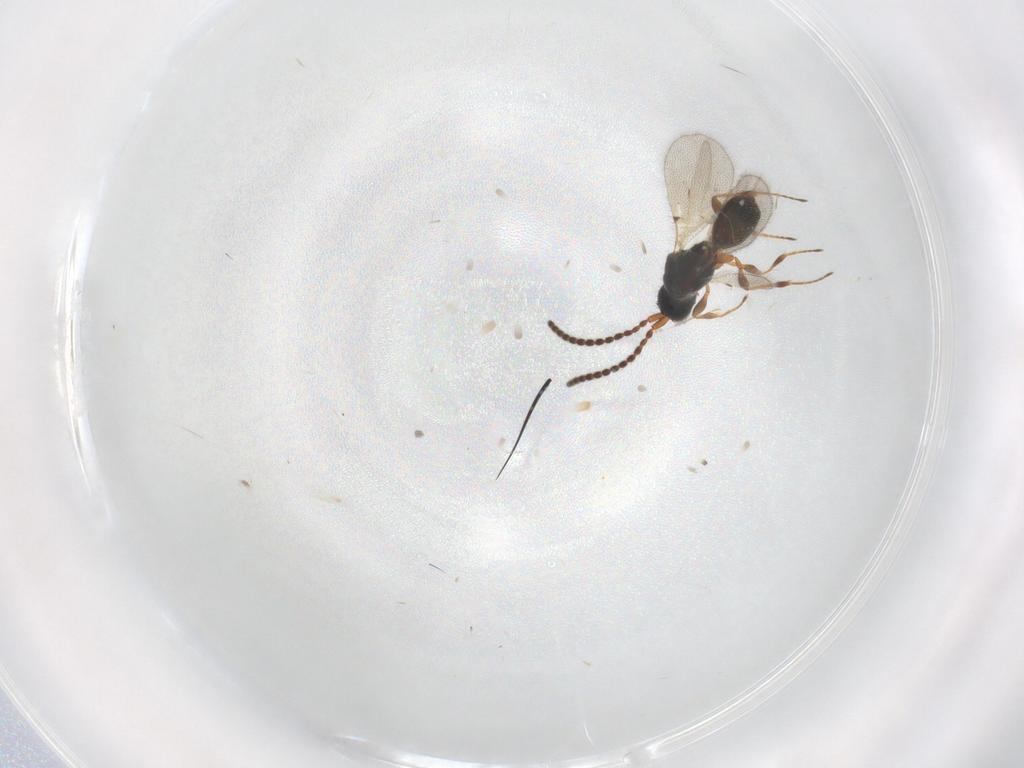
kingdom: Animalia
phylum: Arthropoda
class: Insecta
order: Hymenoptera
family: Diapriidae
